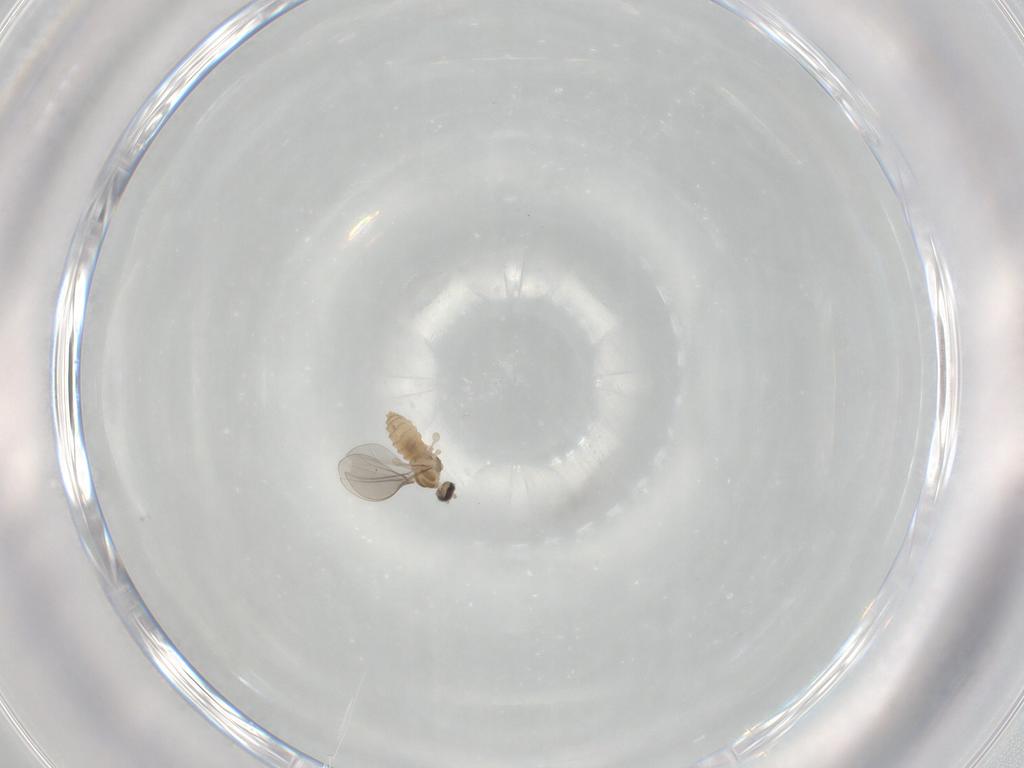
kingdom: Animalia
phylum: Arthropoda
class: Insecta
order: Diptera
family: Cecidomyiidae
